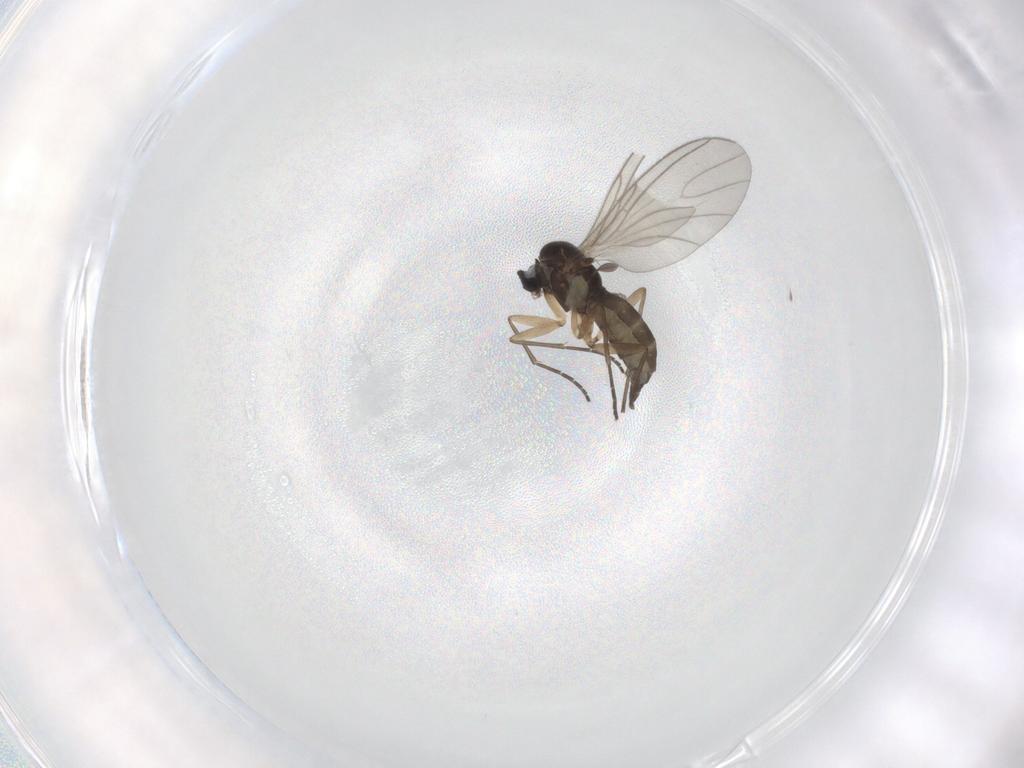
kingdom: Animalia
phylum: Arthropoda
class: Insecta
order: Diptera
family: Sciaridae
